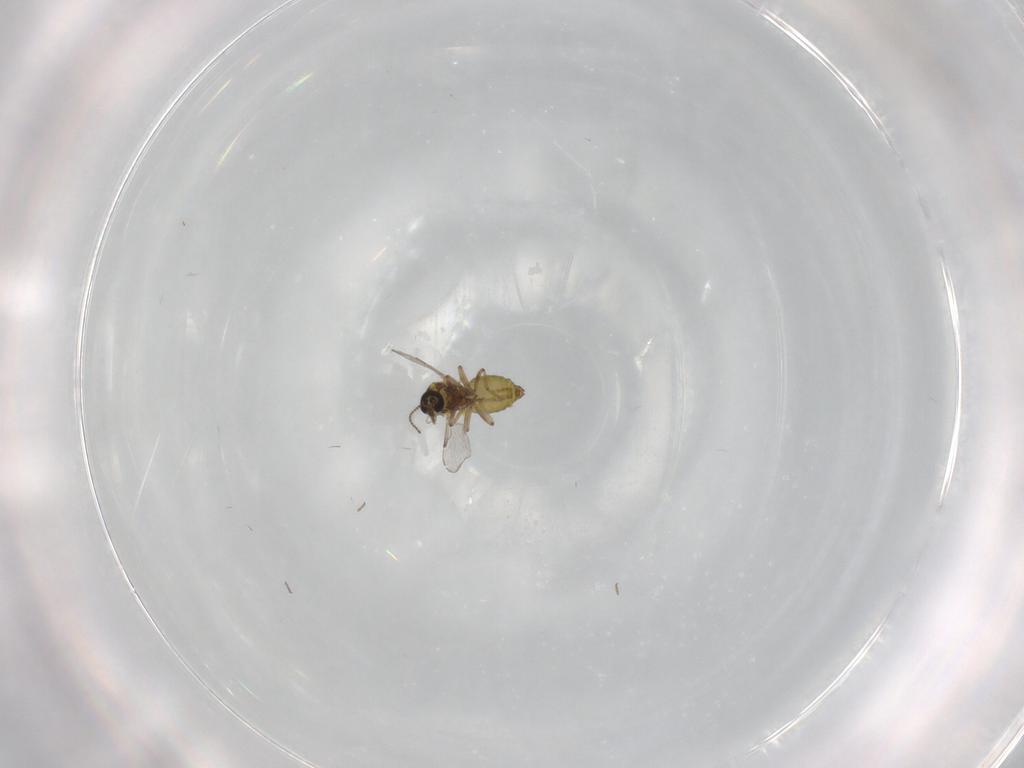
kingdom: Animalia
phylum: Arthropoda
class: Insecta
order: Diptera
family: Ceratopogonidae
